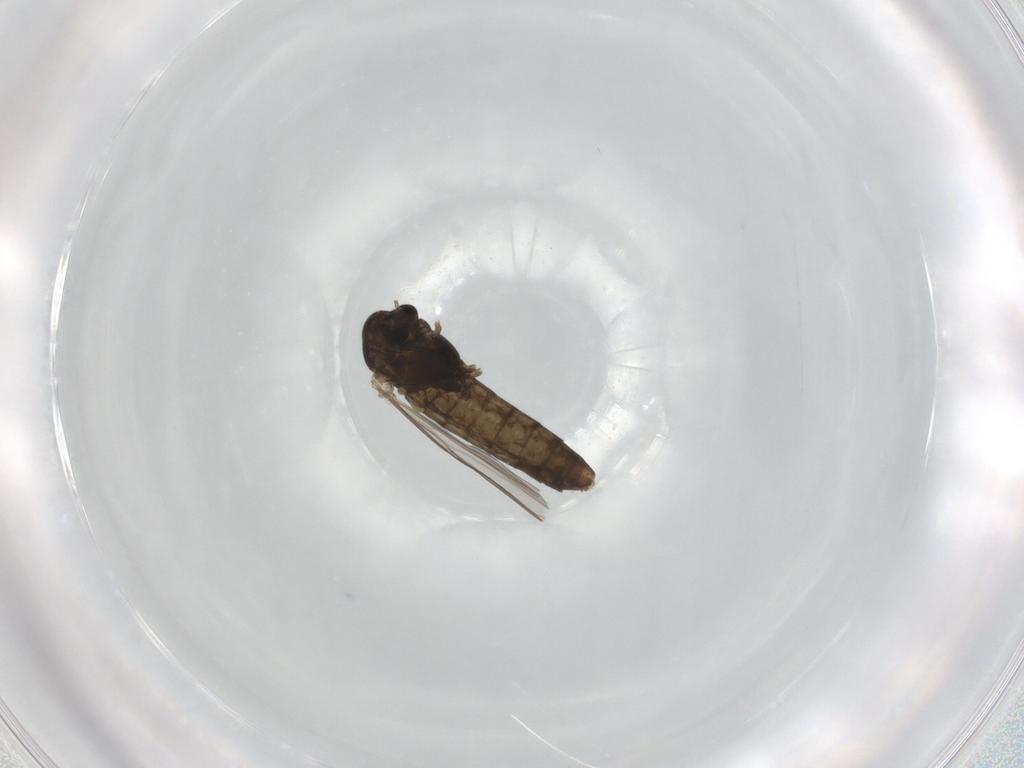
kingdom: Animalia
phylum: Arthropoda
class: Insecta
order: Diptera
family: Chironomidae
